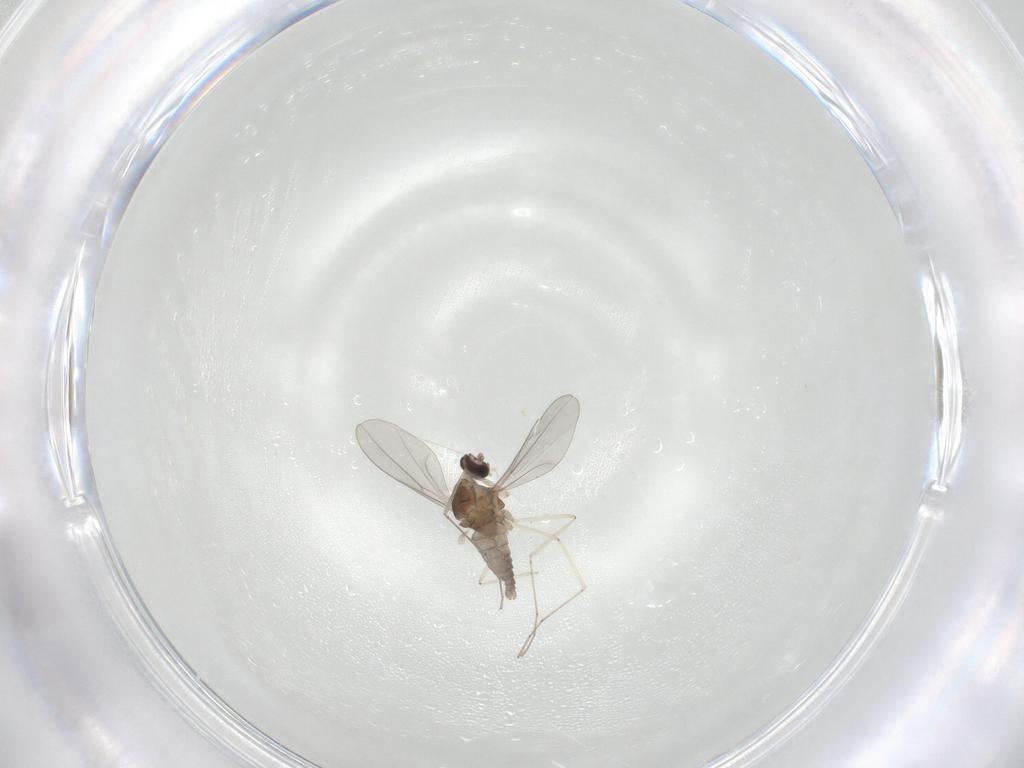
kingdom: Animalia
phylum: Arthropoda
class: Insecta
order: Diptera
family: Cecidomyiidae
